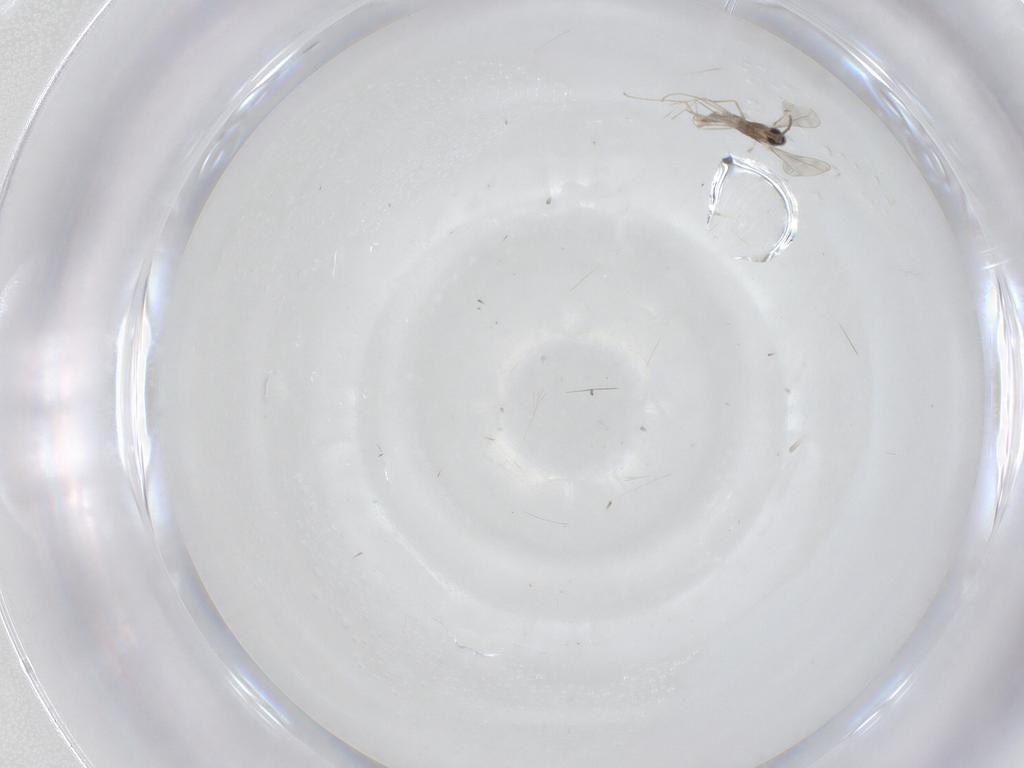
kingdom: Animalia
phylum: Arthropoda
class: Insecta
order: Diptera
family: Cecidomyiidae
